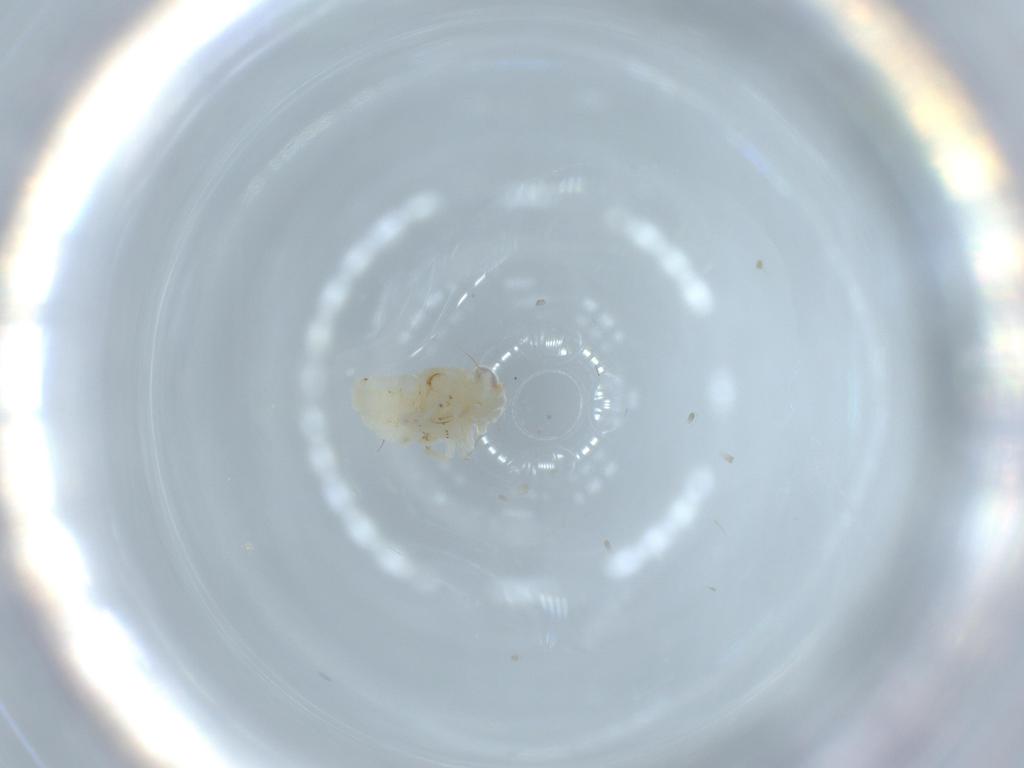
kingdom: Animalia
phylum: Arthropoda
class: Insecta
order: Hemiptera
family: Nogodinidae
